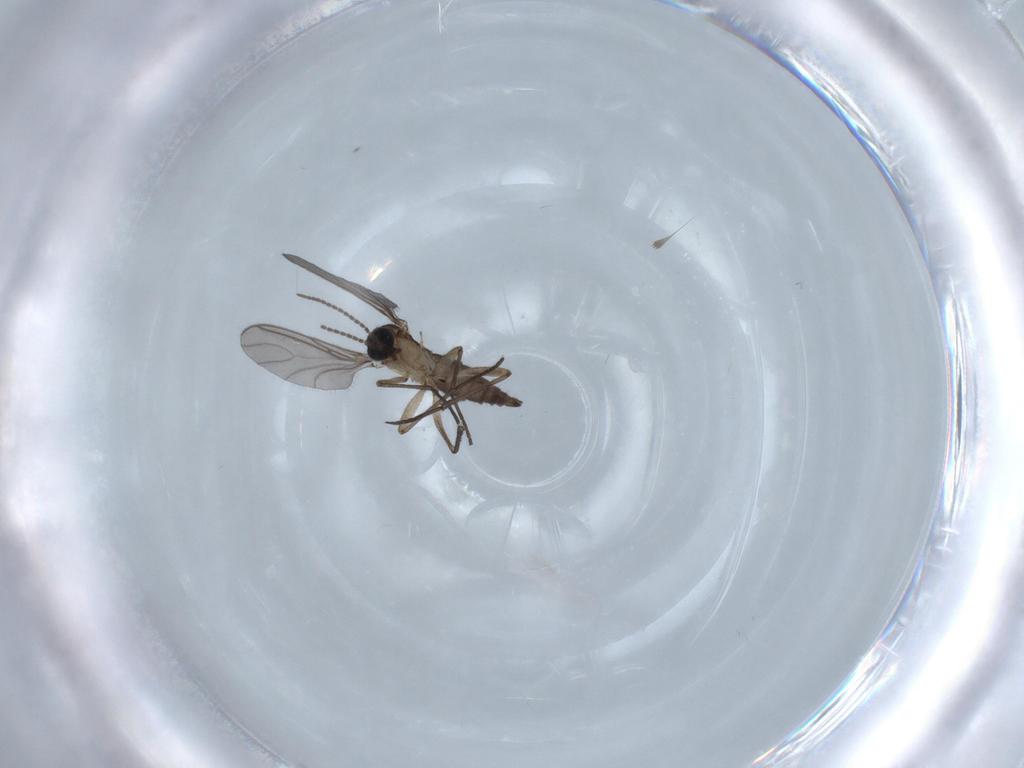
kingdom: Animalia
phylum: Arthropoda
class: Insecta
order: Diptera
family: Sciaridae
